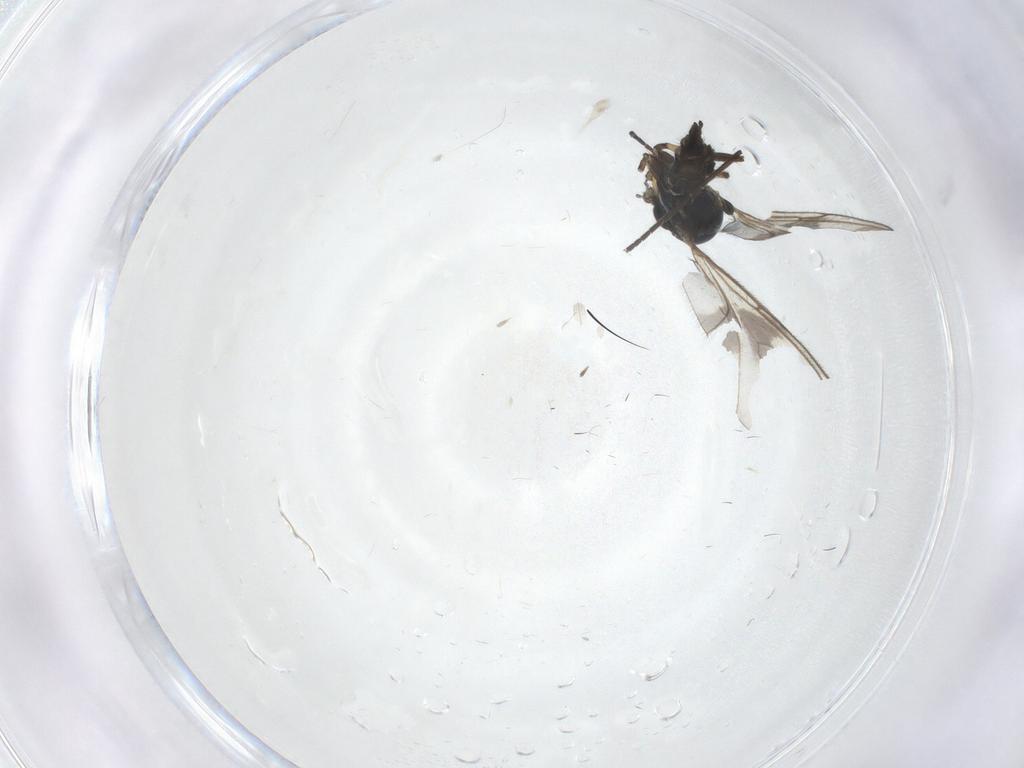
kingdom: Animalia
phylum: Arthropoda
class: Insecta
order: Diptera
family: Sciaridae
